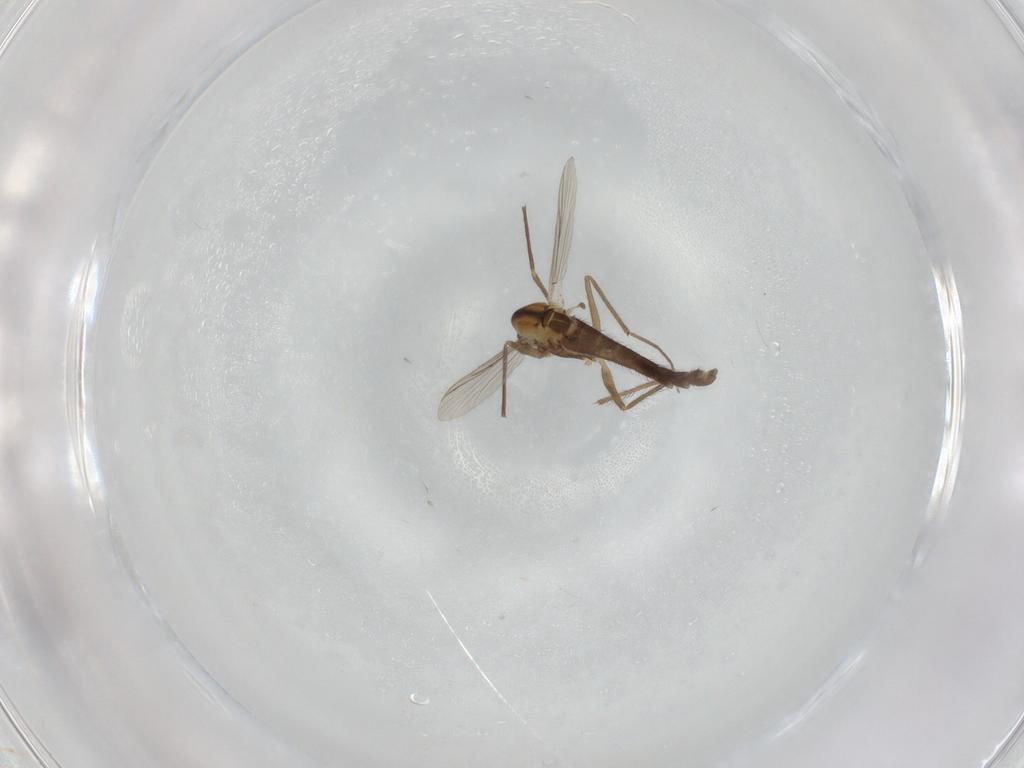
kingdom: Animalia
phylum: Arthropoda
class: Insecta
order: Diptera
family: Chironomidae
